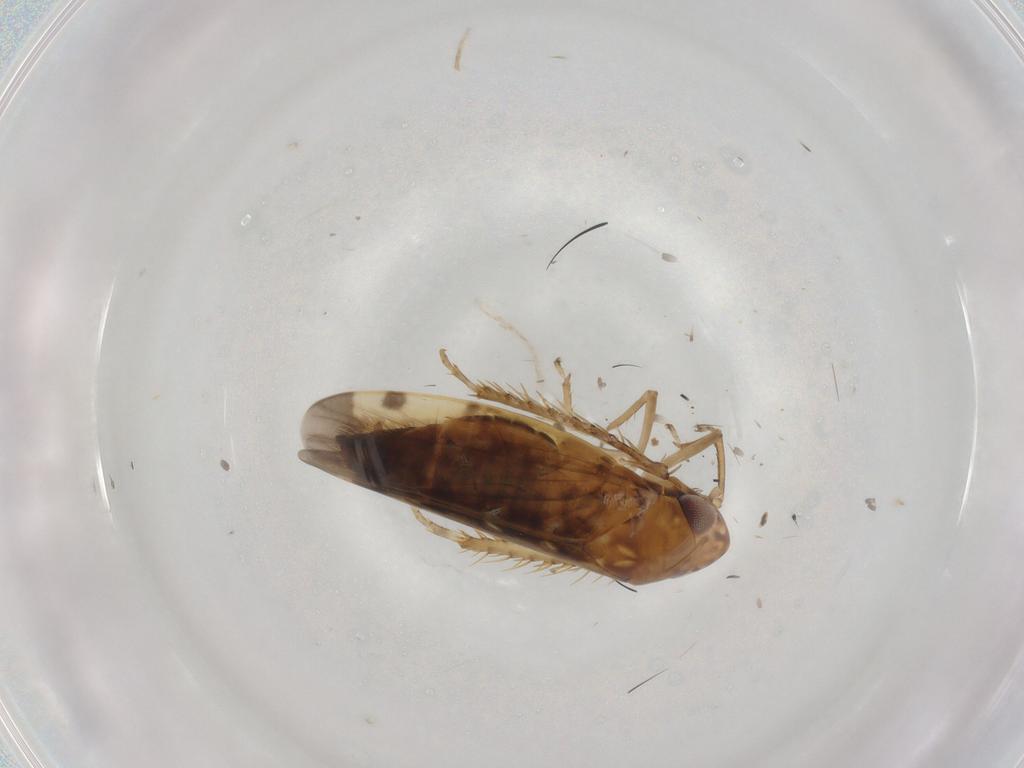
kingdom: Animalia
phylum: Arthropoda
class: Insecta
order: Hemiptera
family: Cicadellidae
